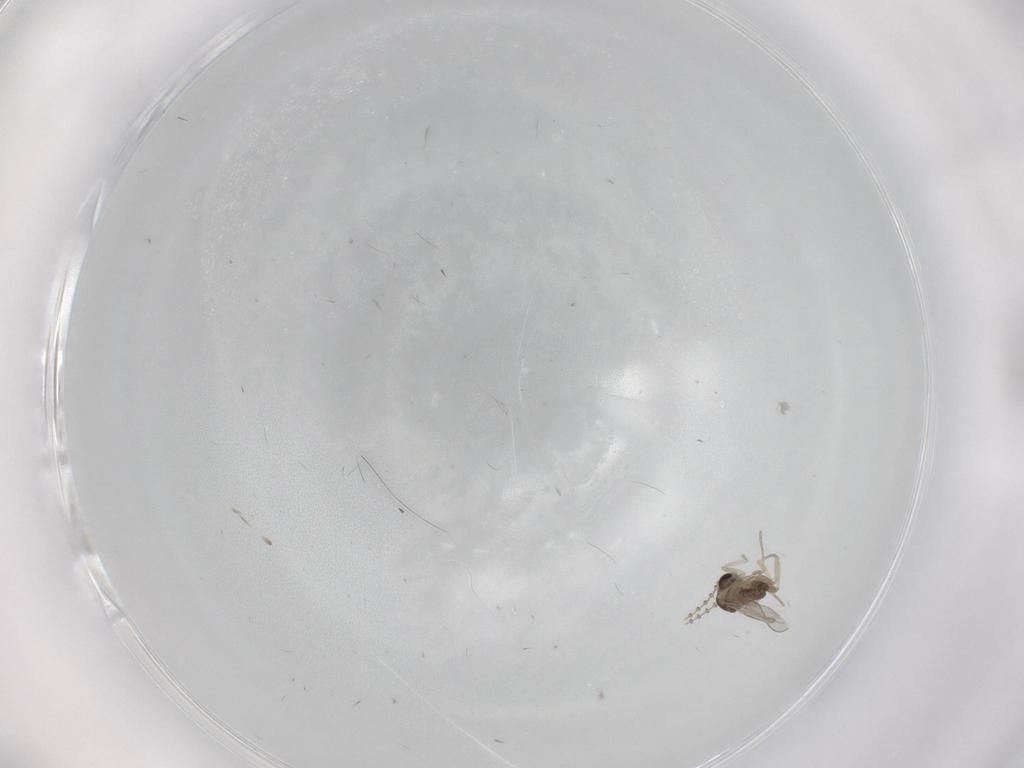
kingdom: Animalia
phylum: Arthropoda
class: Insecta
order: Diptera
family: Cecidomyiidae
